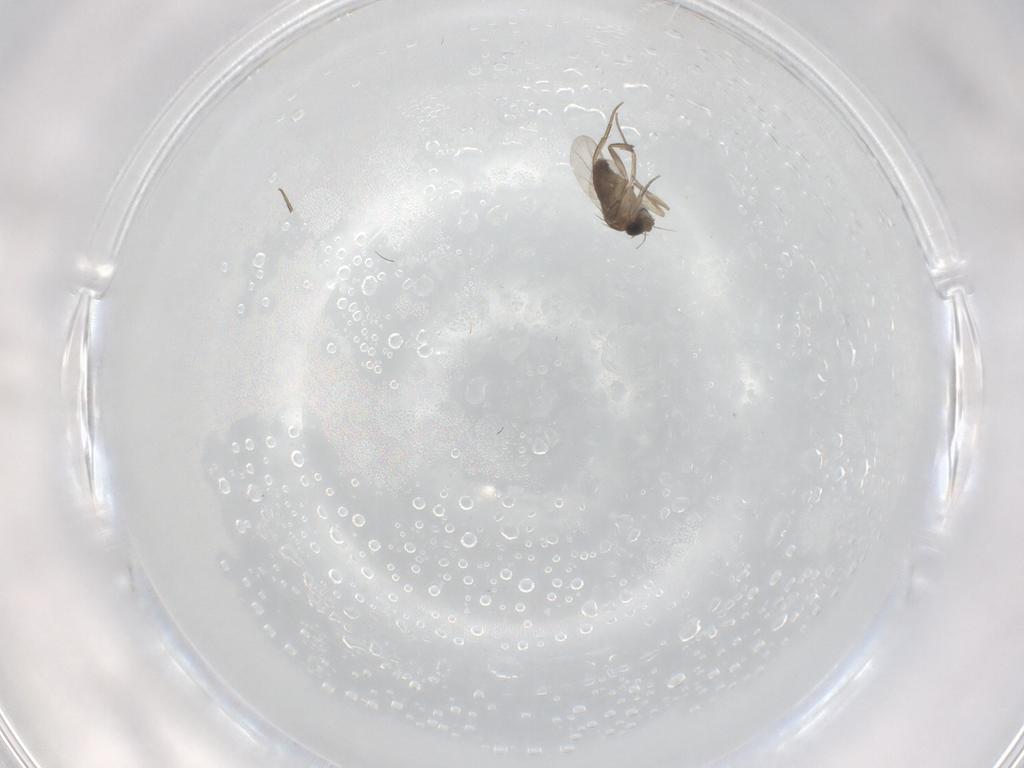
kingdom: Animalia
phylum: Arthropoda
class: Insecta
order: Diptera
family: Phoridae
